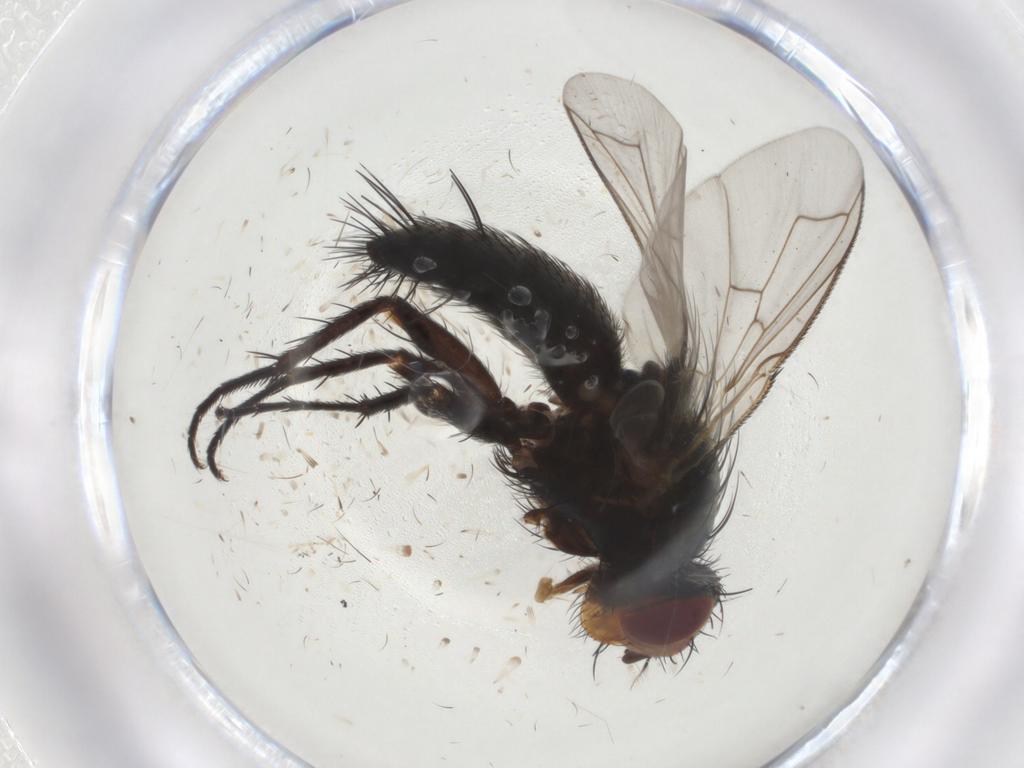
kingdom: Animalia
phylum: Arthropoda
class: Insecta
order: Diptera
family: Tachinidae
